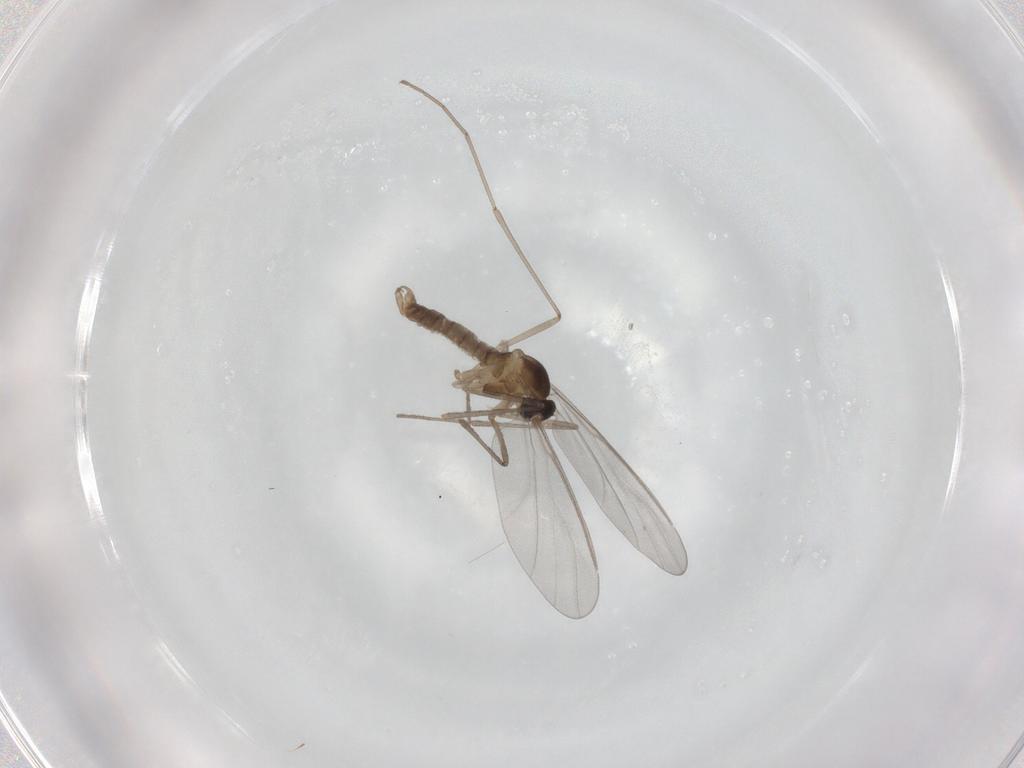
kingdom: Animalia
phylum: Arthropoda
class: Insecta
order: Diptera
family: Cecidomyiidae
